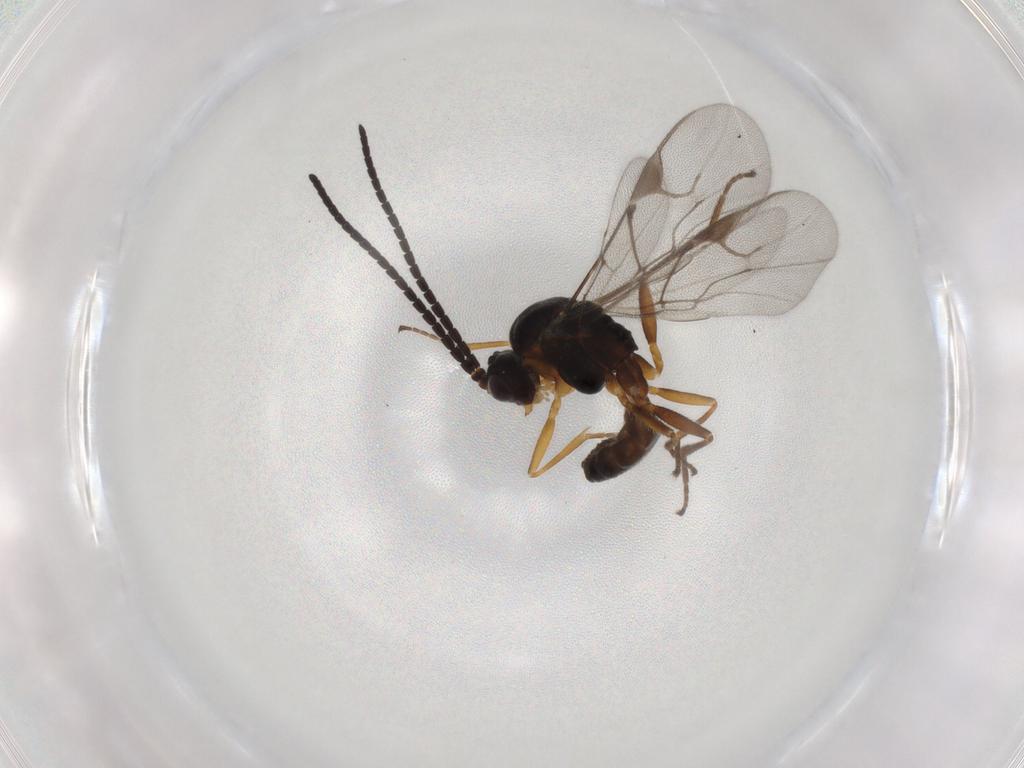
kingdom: Animalia
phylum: Arthropoda
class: Insecta
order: Hymenoptera
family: Braconidae
